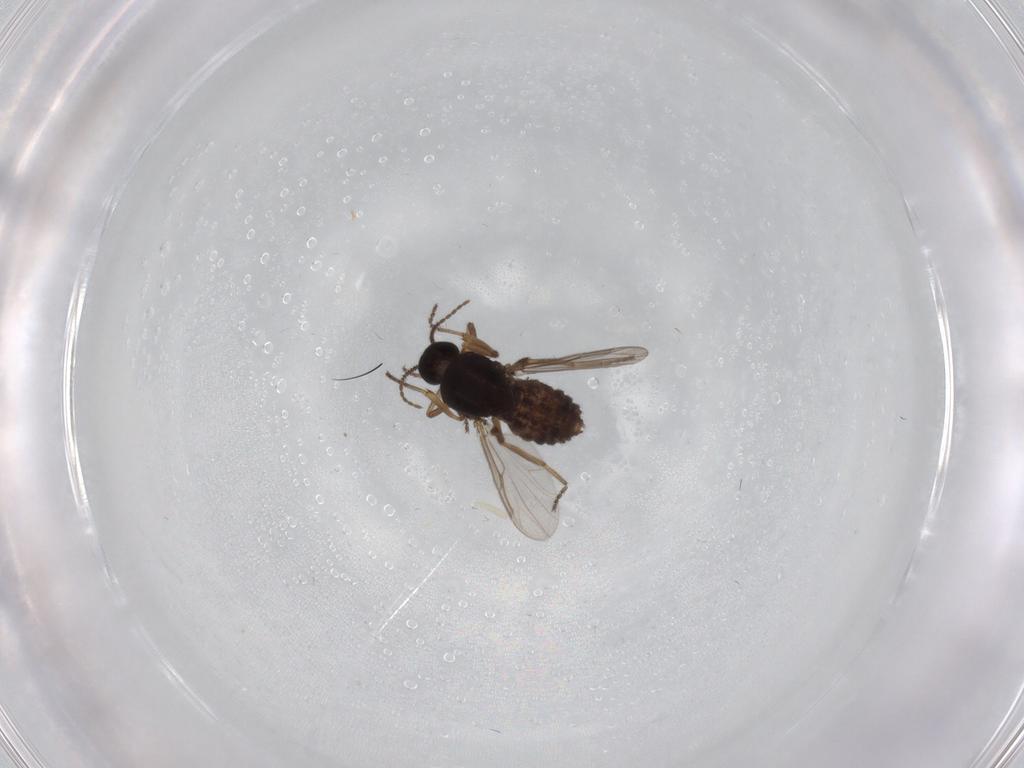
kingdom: Animalia
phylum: Arthropoda
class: Insecta
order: Diptera
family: Ceratopogonidae
